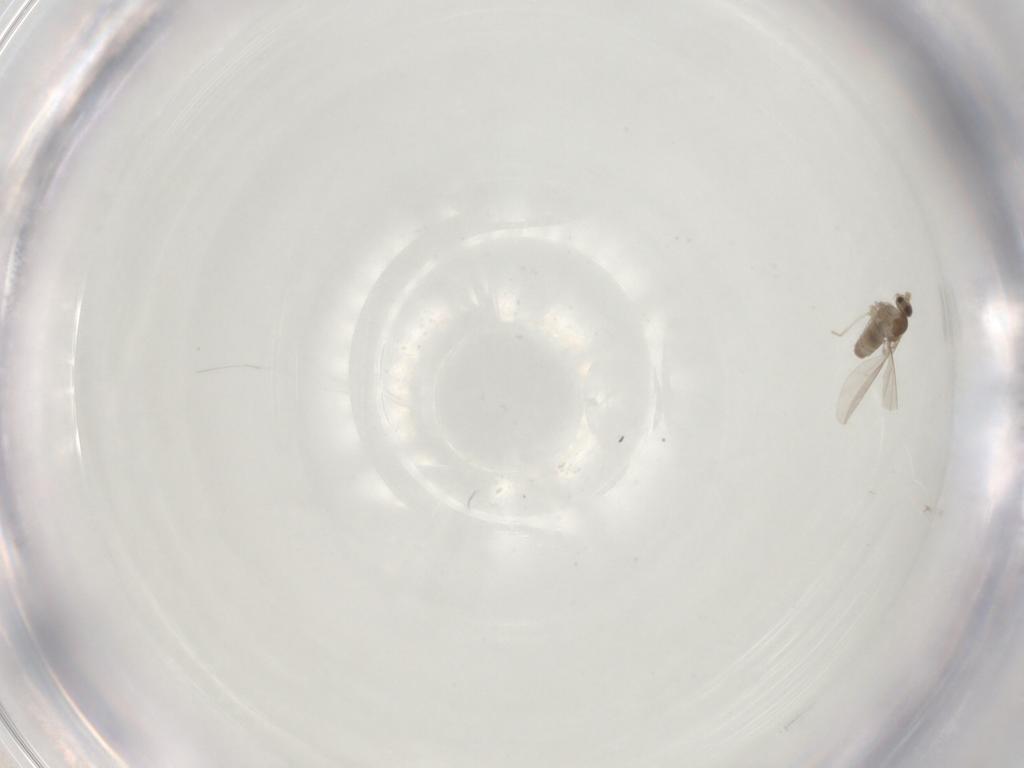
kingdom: Animalia
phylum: Arthropoda
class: Insecta
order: Diptera
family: Cecidomyiidae
